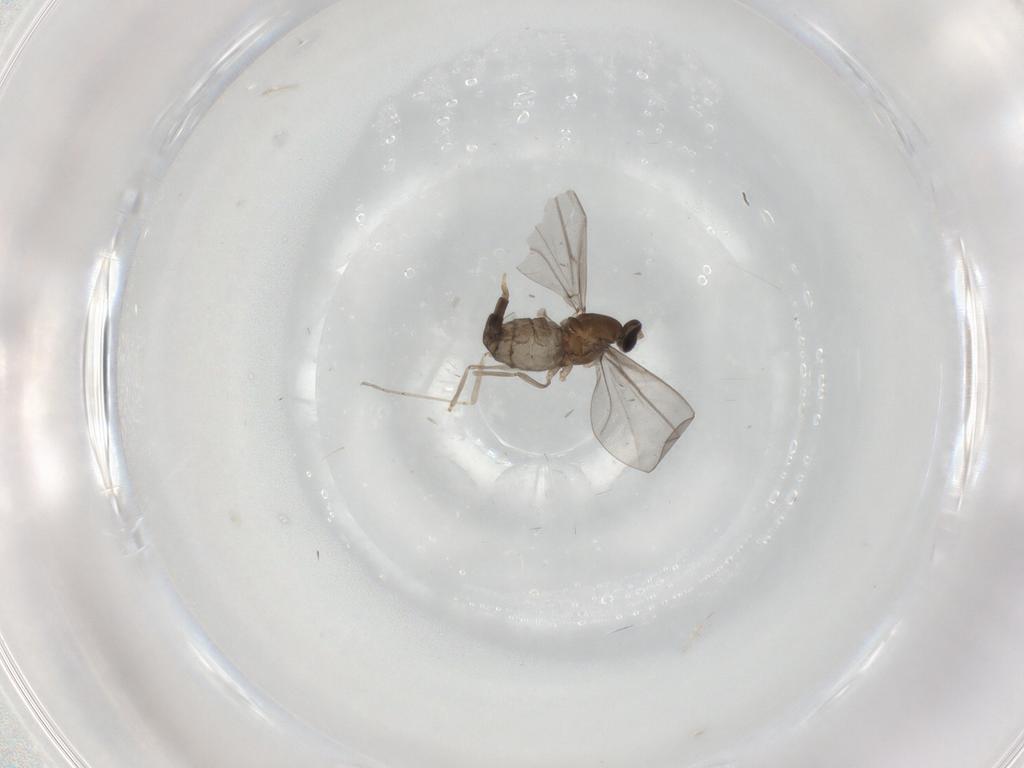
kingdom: Animalia
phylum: Arthropoda
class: Insecta
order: Diptera
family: Cecidomyiidae
